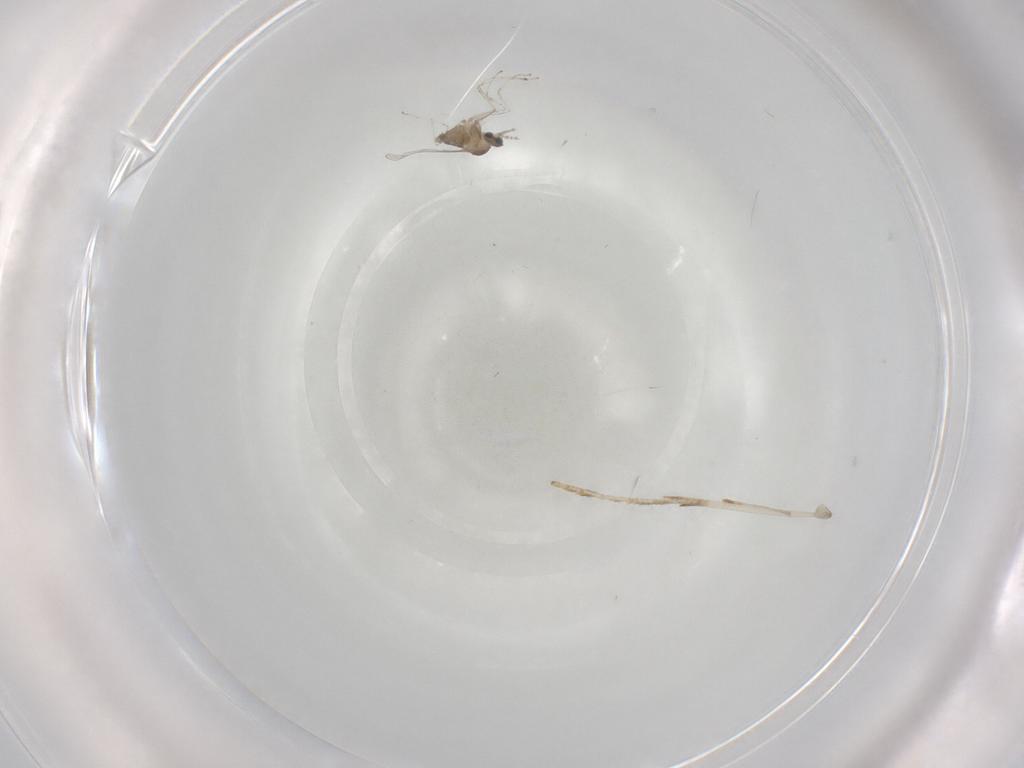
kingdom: Animalia
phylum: Arthropoda
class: Insecta
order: Diptera
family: Cecidomyiidae
